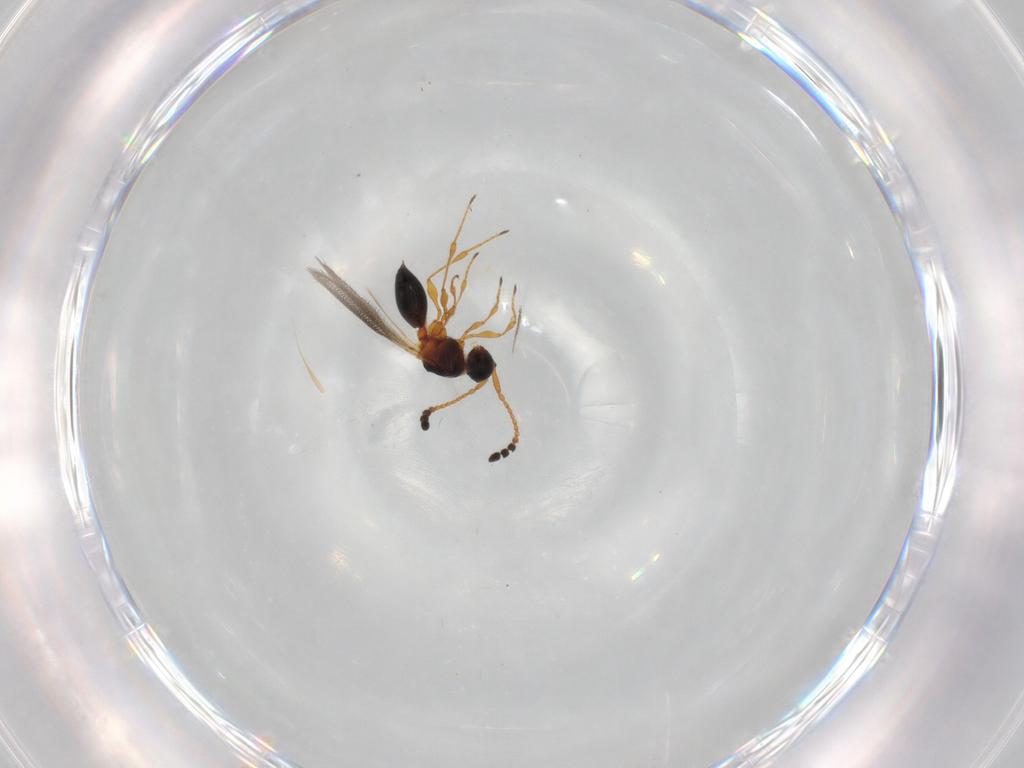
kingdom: Animalia
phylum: Arthropoda
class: Insecta
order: Hymenoptera
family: Diapriidae
